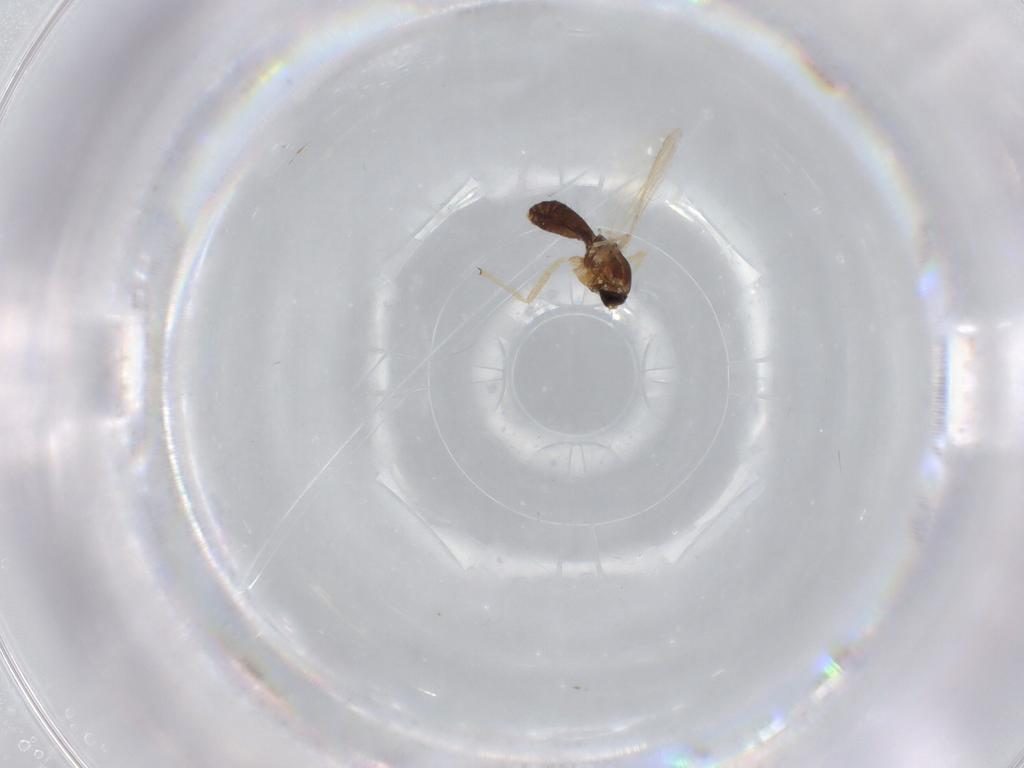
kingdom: Animalia
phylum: Arthropoda
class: Insecta
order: Diptera
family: Chironomidae
